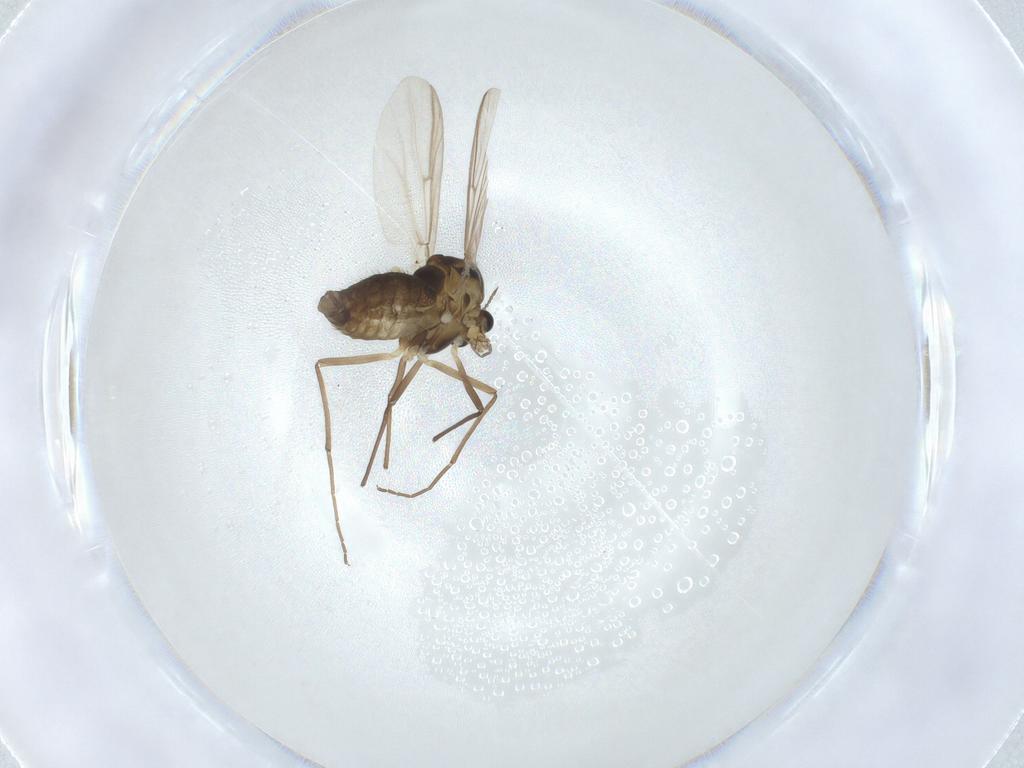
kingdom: Animalia
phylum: Arthropoda
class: Insecta
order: Diptera
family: Chironomidae
